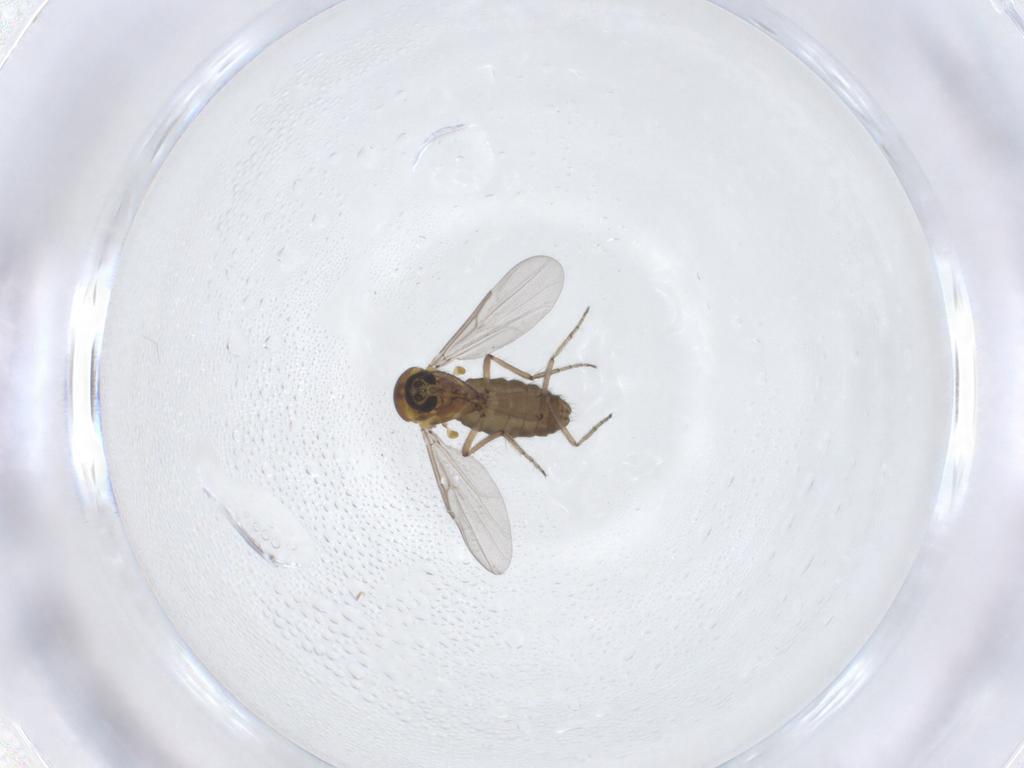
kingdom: Animalia
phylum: Arthropoda
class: Insecta
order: Diptera
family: Ceratopogonidae
